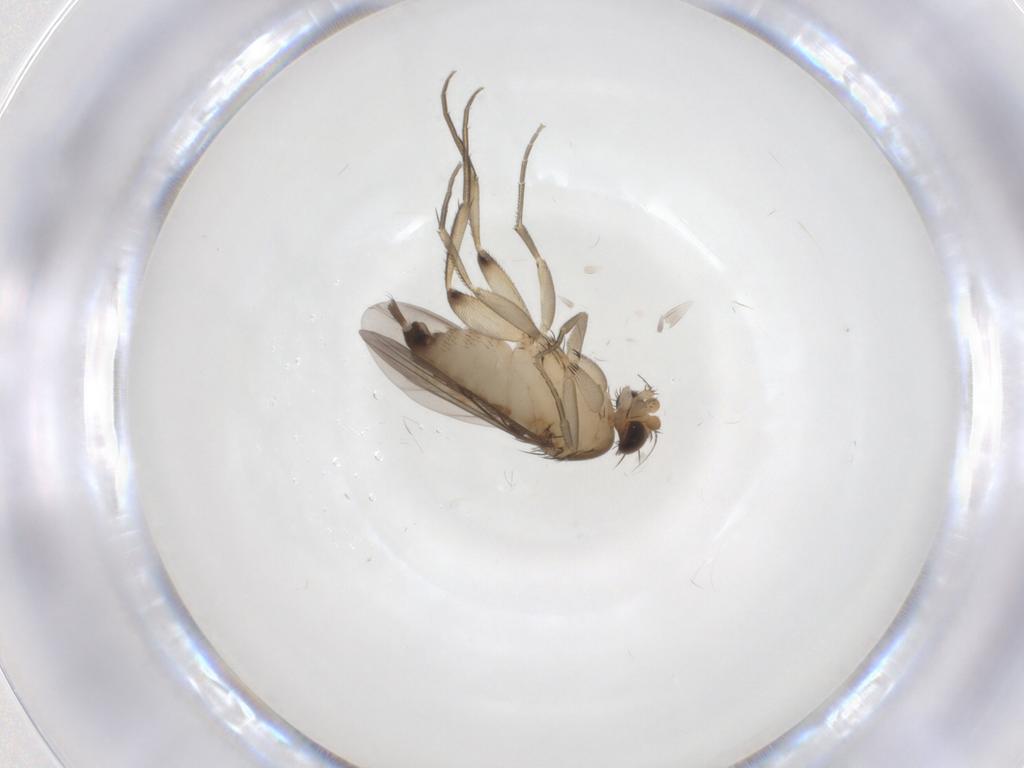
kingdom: Animalia
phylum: Arthropoda
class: Insecta
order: Diptera
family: Phoridae
